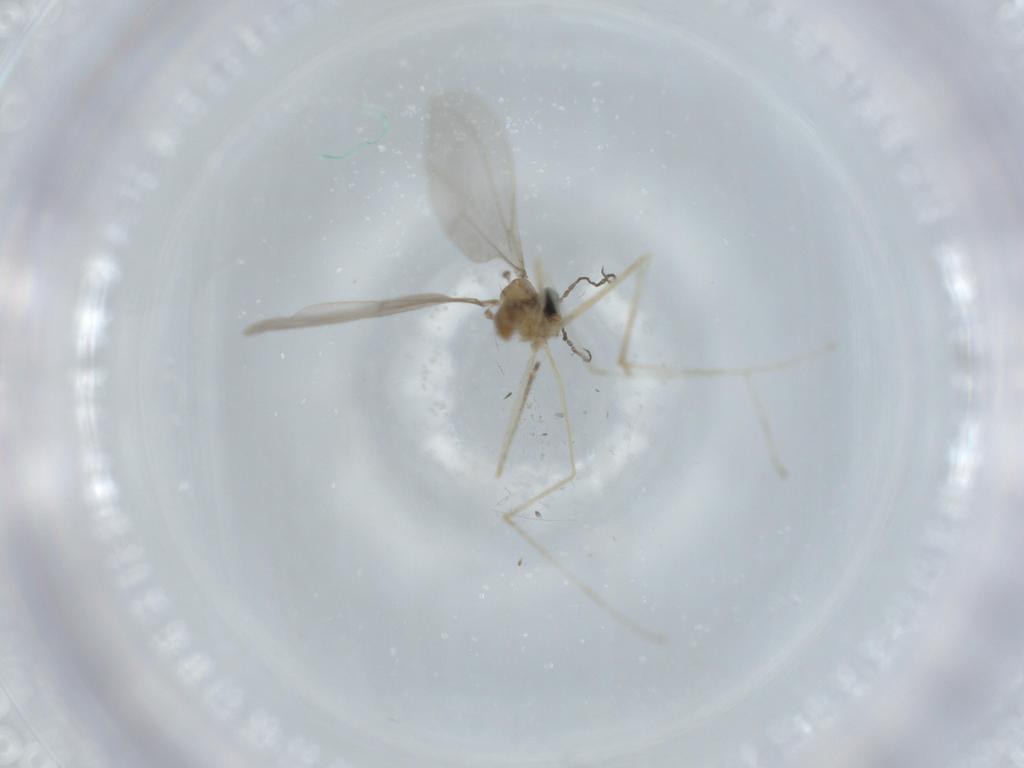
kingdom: Animalia
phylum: Arthropoda
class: Insecta
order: Diptera
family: Cecidomyiidae
